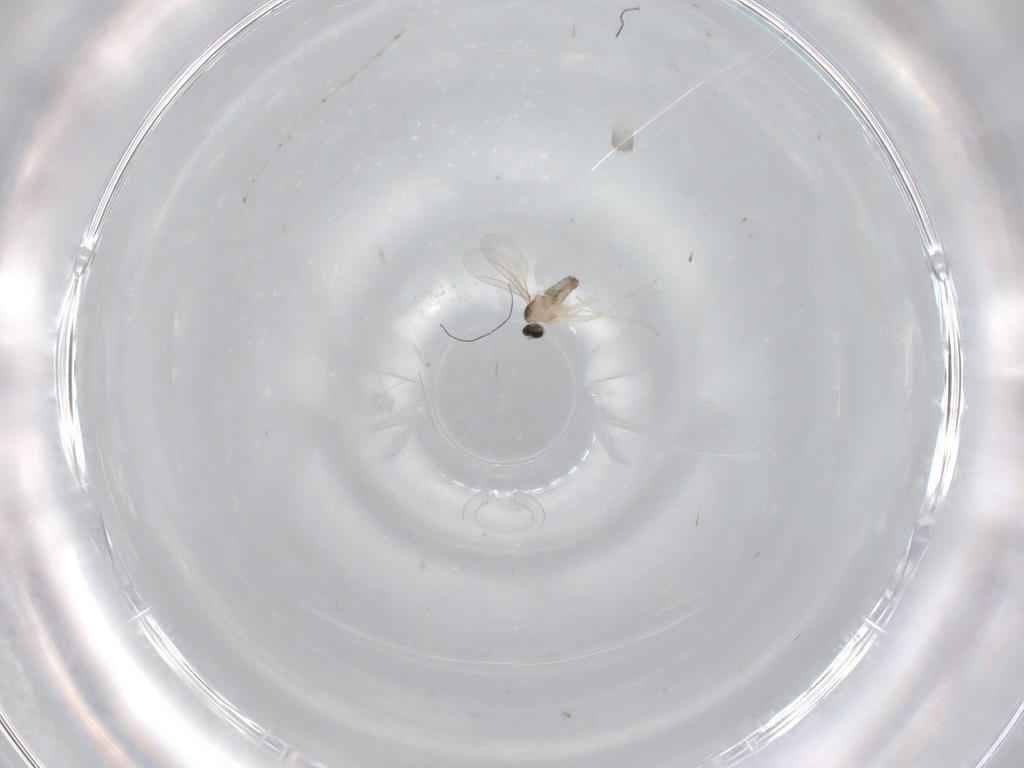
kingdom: Animalia
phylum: Arthropoda
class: Insecta
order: Diptera
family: Cecidomyiidae
